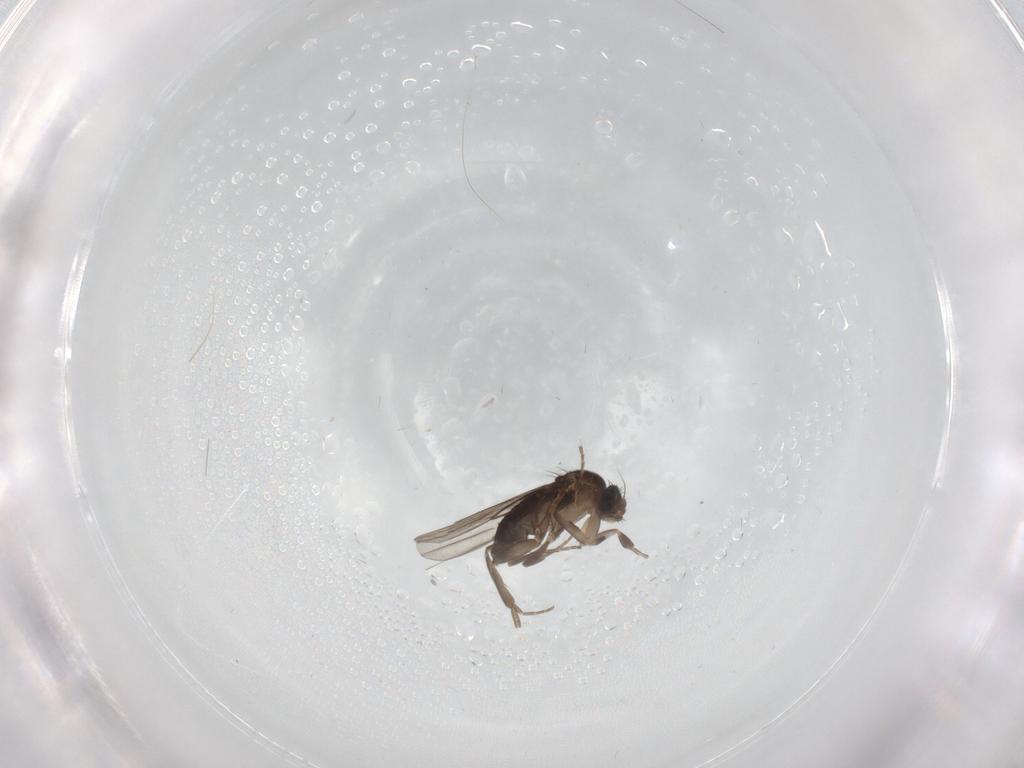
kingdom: Animalia
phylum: Arthropoda
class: Insecta
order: Diptera
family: Phoridae
